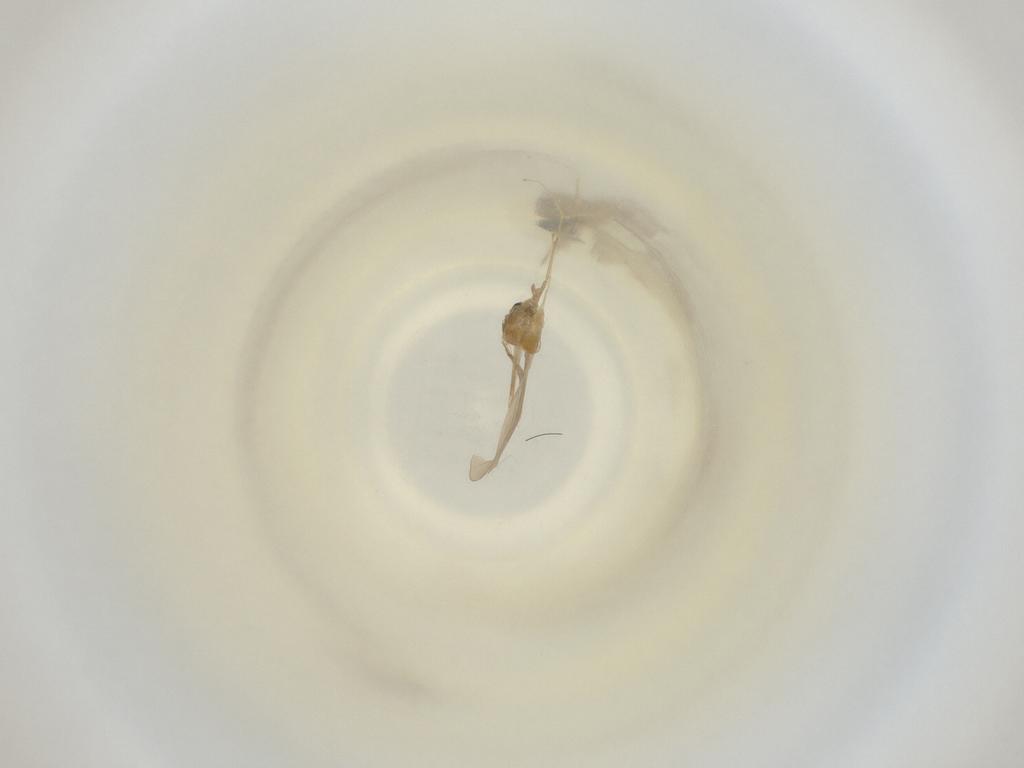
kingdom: Animalia
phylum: Arthropoda
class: Insecta
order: Diptera
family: Cecidomyiidae
